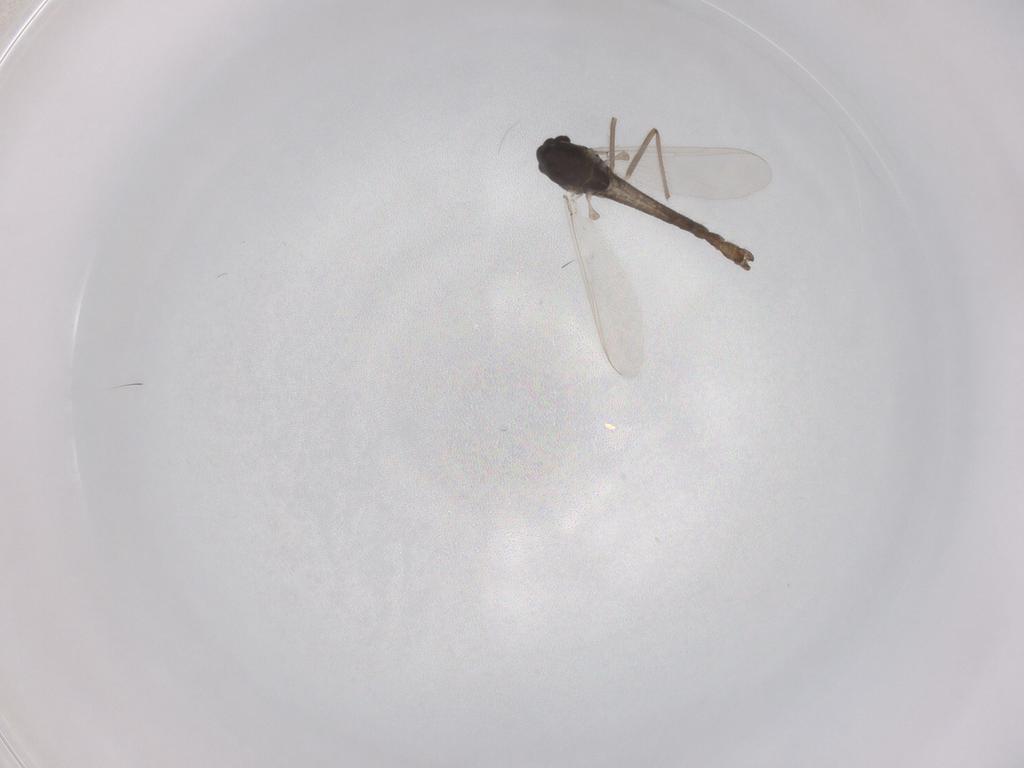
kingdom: Animalia
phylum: Arthropoda
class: Insecta
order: Diptera
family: Chironomidae
